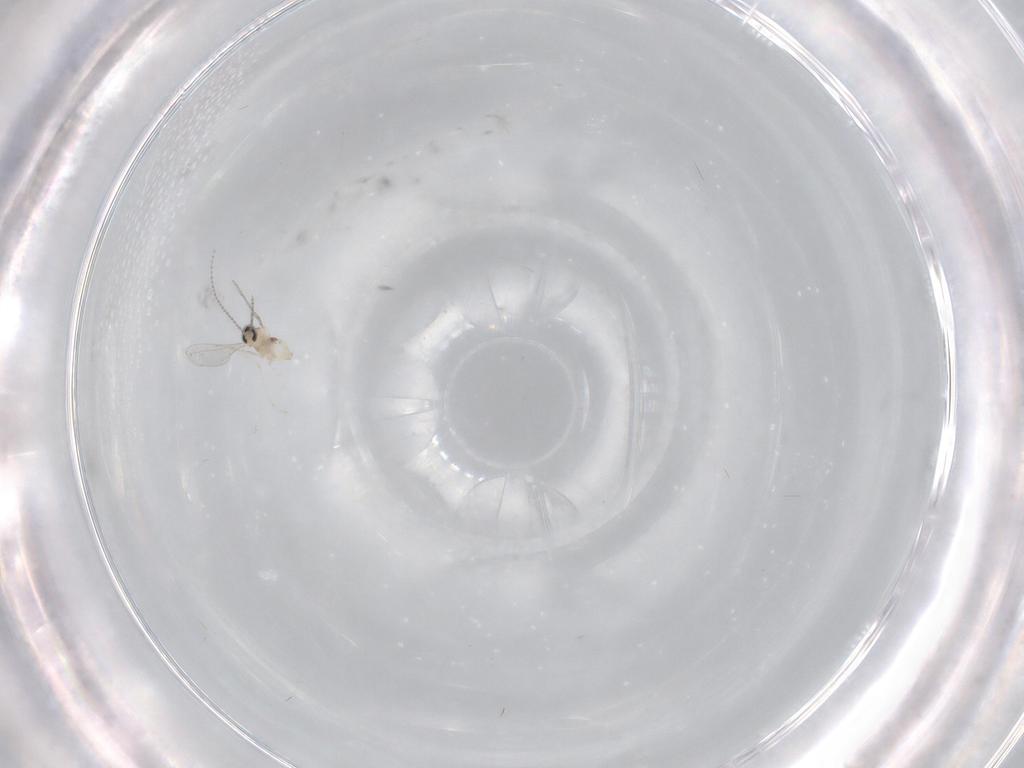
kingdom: Animalia
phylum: Arthropoda
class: Insecta
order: Diptera
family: Cecidomyiidae
